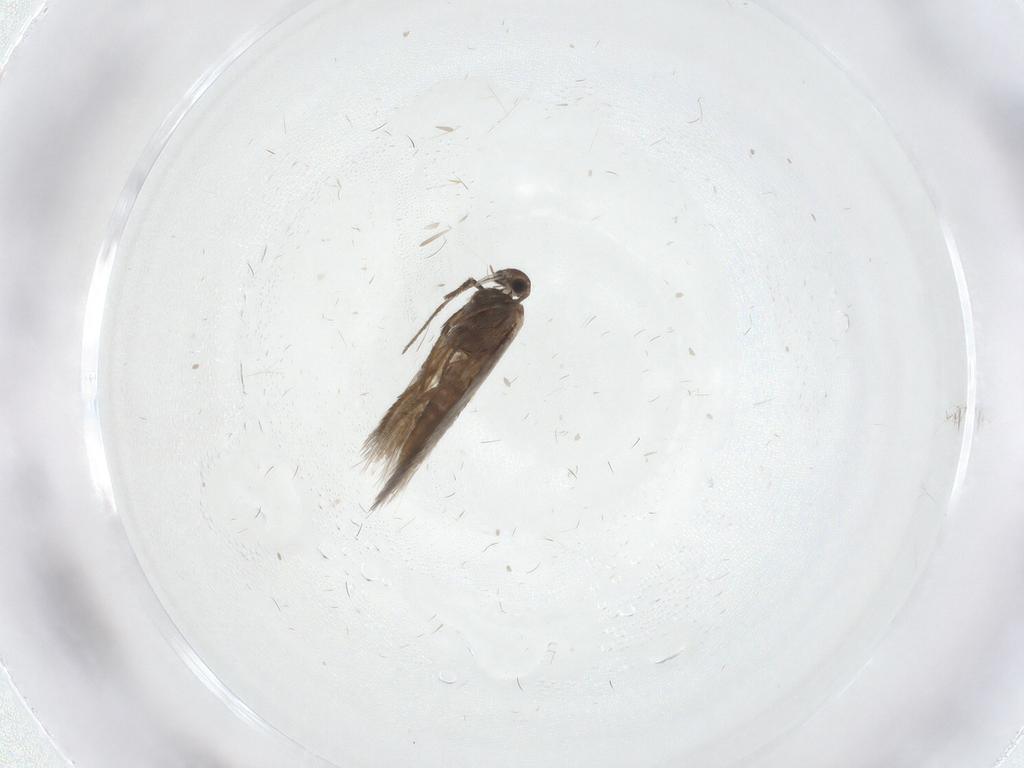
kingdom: Animalia
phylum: Arthropoda
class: Insecta
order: Lepidoptera
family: Heliozelidae
